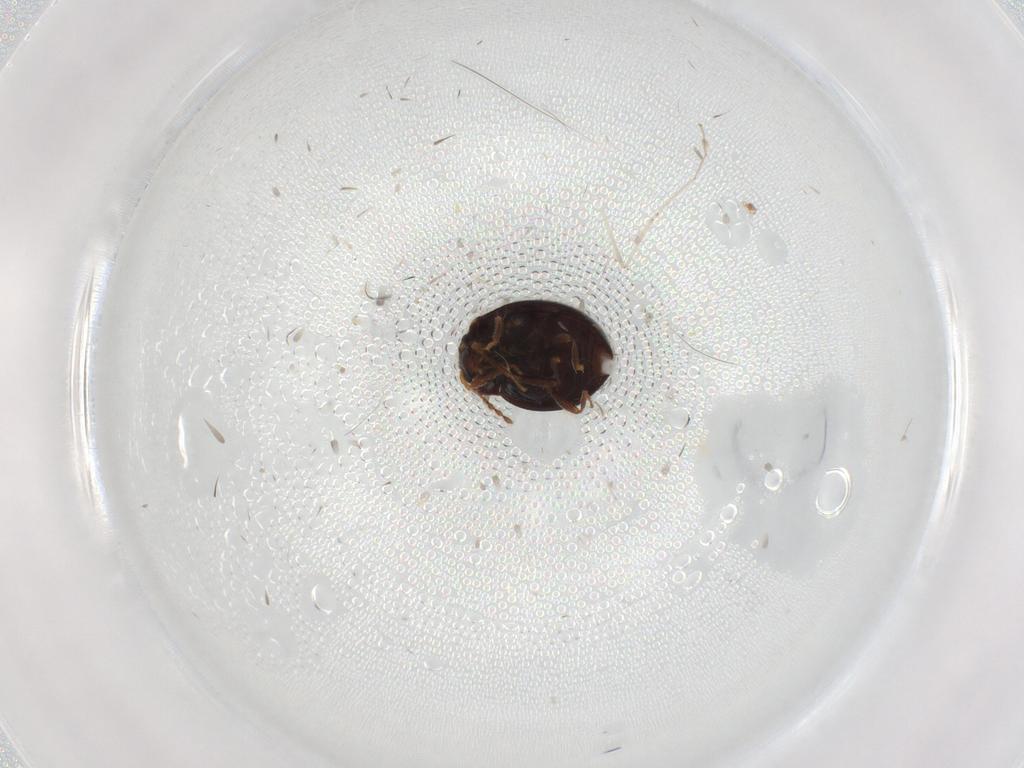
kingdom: Animalia
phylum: Arthropoda
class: Insecta
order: Coleoptera
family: Anamorphidae
